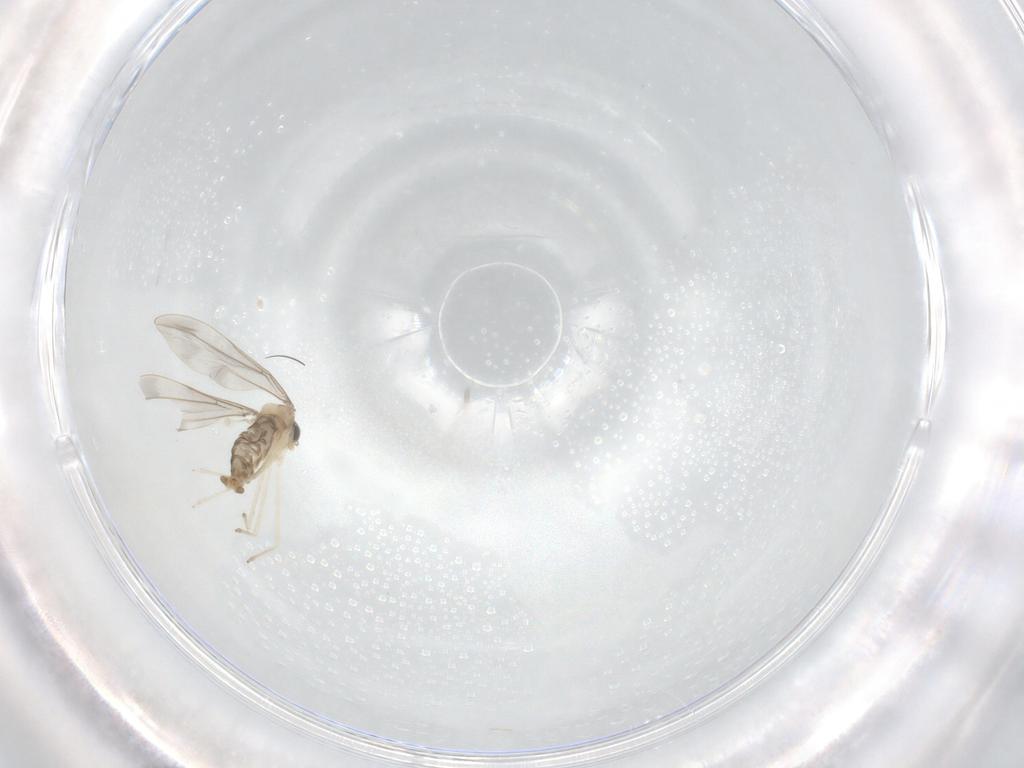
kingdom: Animalia
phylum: Arthropoda
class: Insecta
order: Diptera
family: Cecidomyiidae
